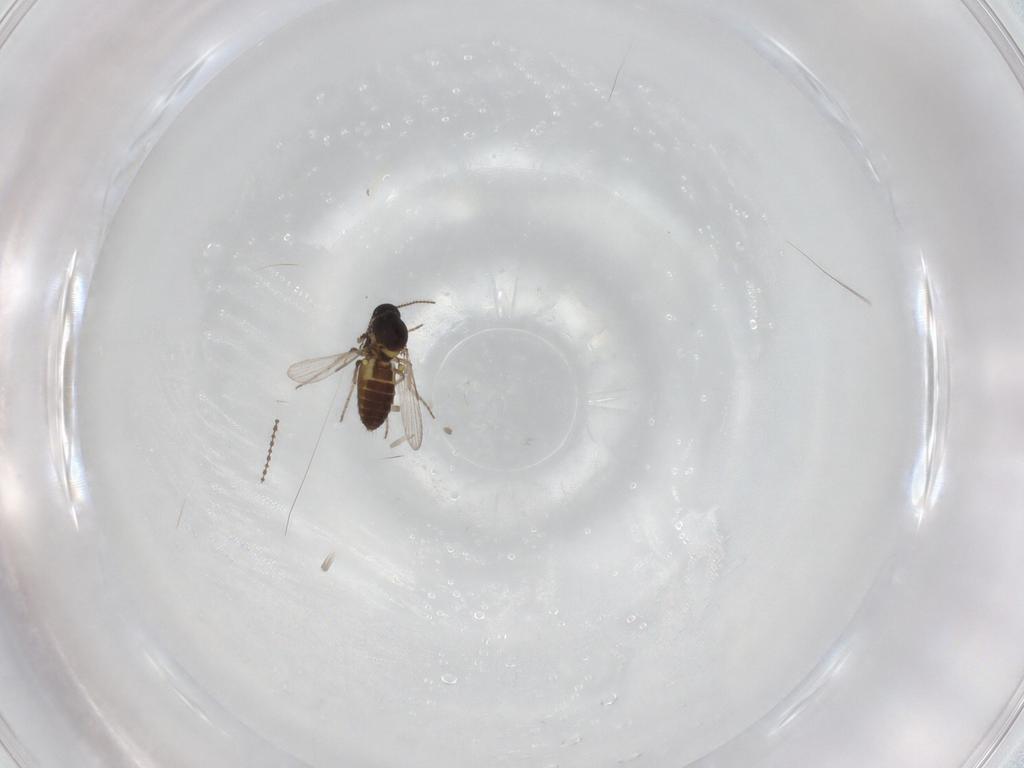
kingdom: Animalia
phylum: Arthropoda
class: Insecta
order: Diptera
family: Ceratopogonidae
